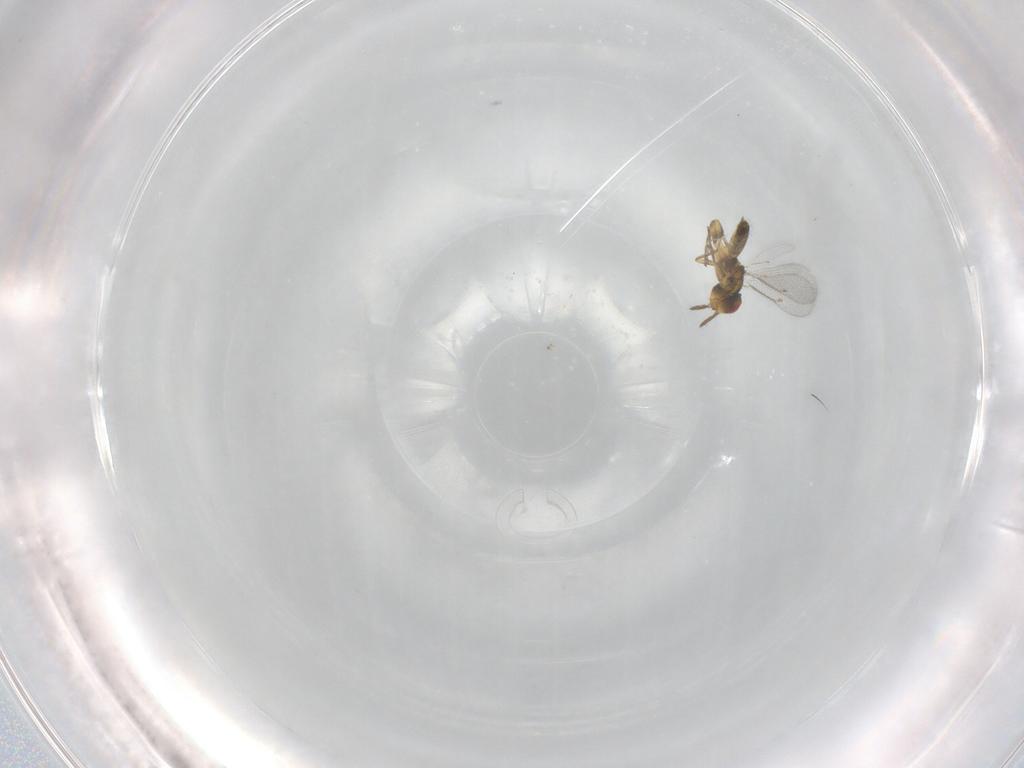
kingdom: Animalia
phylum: Arthropoda
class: Insecta
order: Hymenoptera
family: Eulophidae
